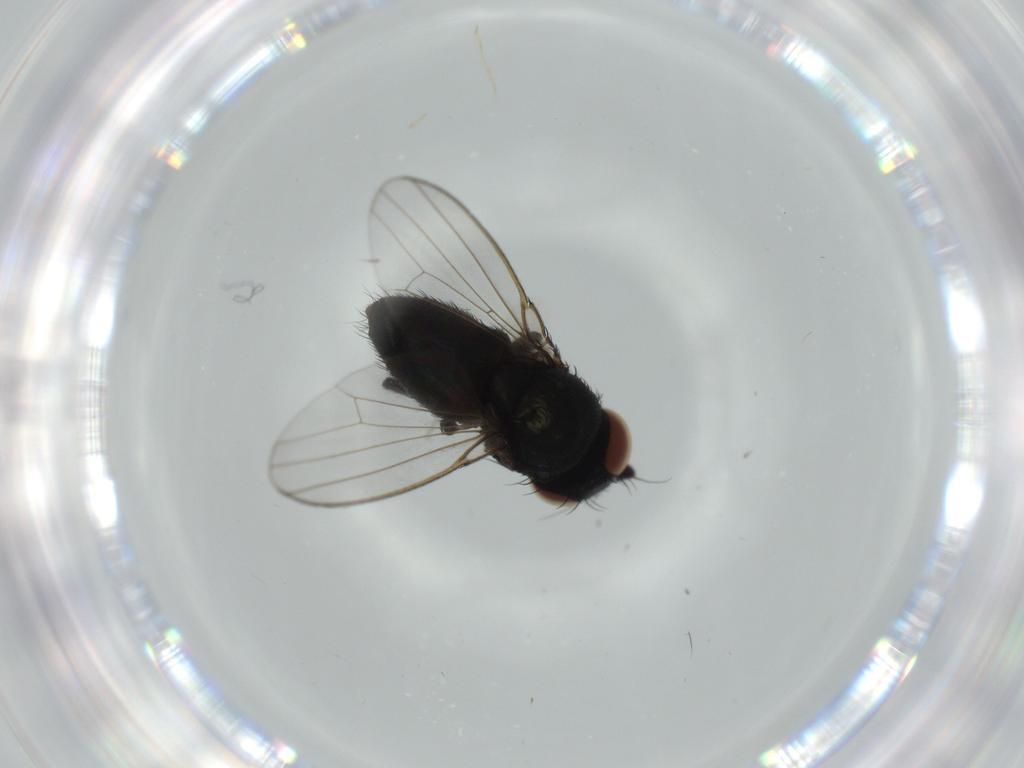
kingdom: Animalia
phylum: Arthropoda
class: Insecta
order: Diptera
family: Milichiidae
